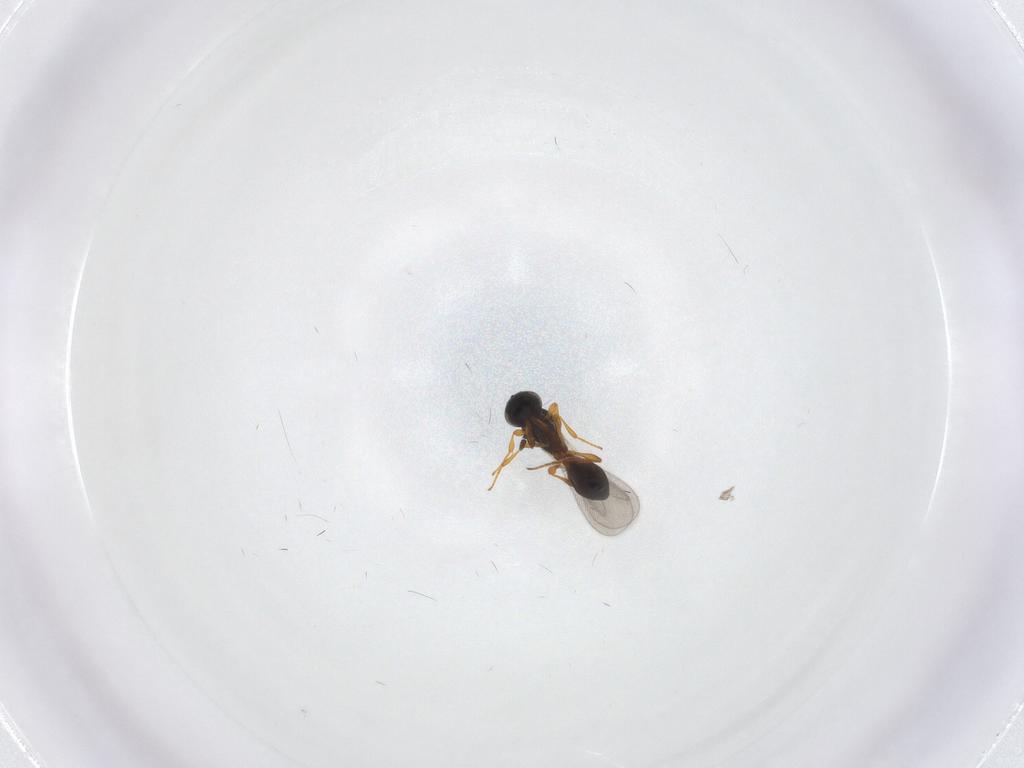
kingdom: Animalia
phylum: Arthropoda
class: Insecta
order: Hymenoptera
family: Platygastridae
